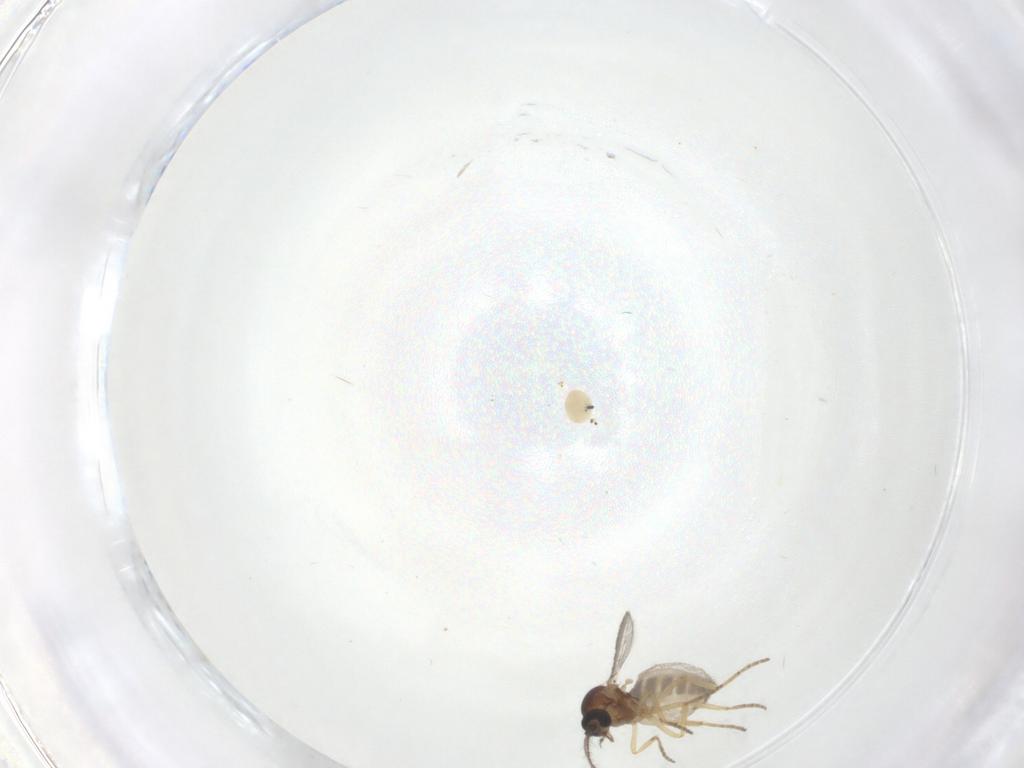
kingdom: Animalia
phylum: Arthropoda
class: Insecta
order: Diptera
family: Ceratopogonidae
